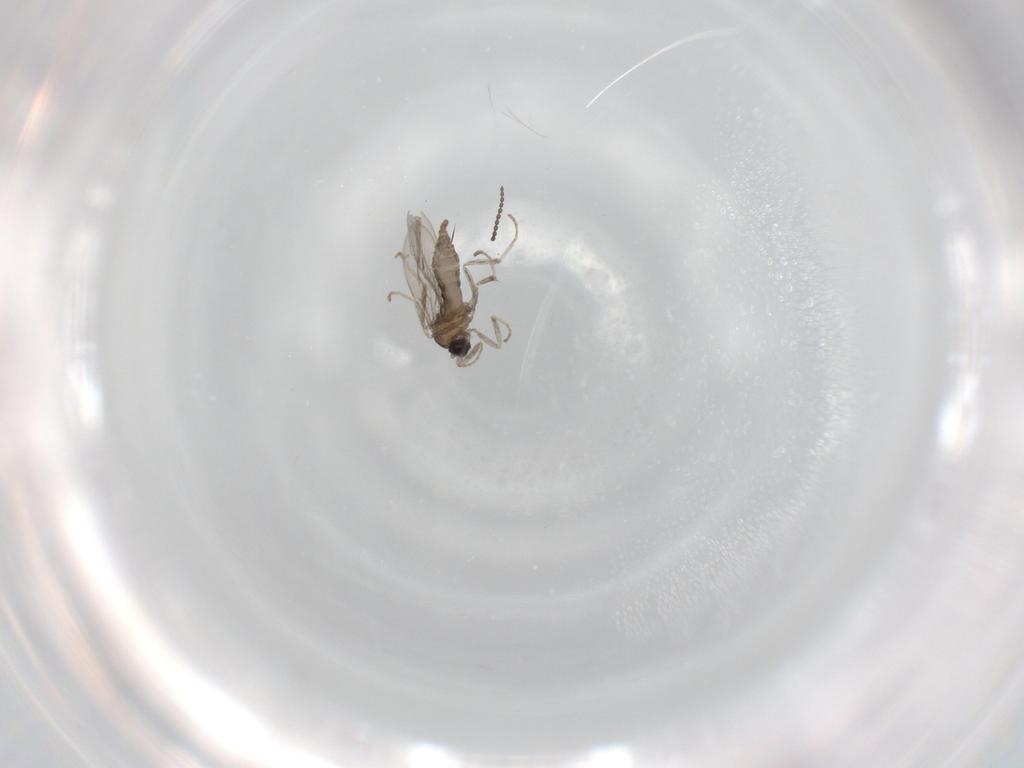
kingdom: Animalia
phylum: Arthropoda
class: Insecta
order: Diptera
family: Cecidomyiidae
